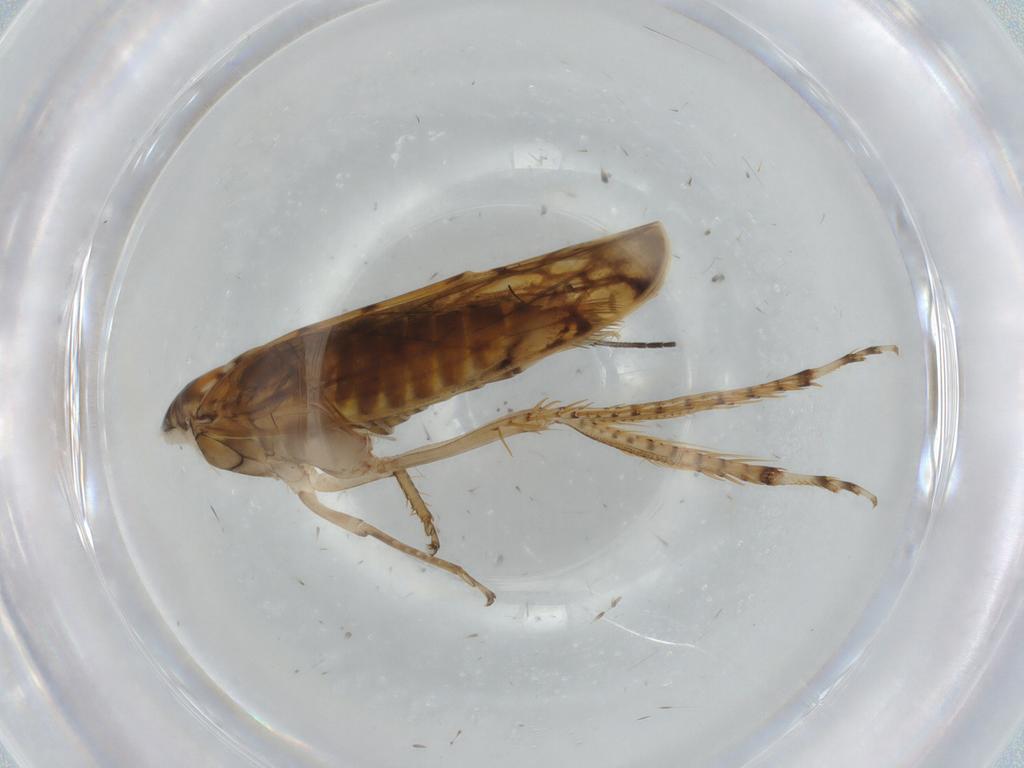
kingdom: Animalia
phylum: Arthropoda
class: Insecta
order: Hemiptera
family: Cicadellidae
